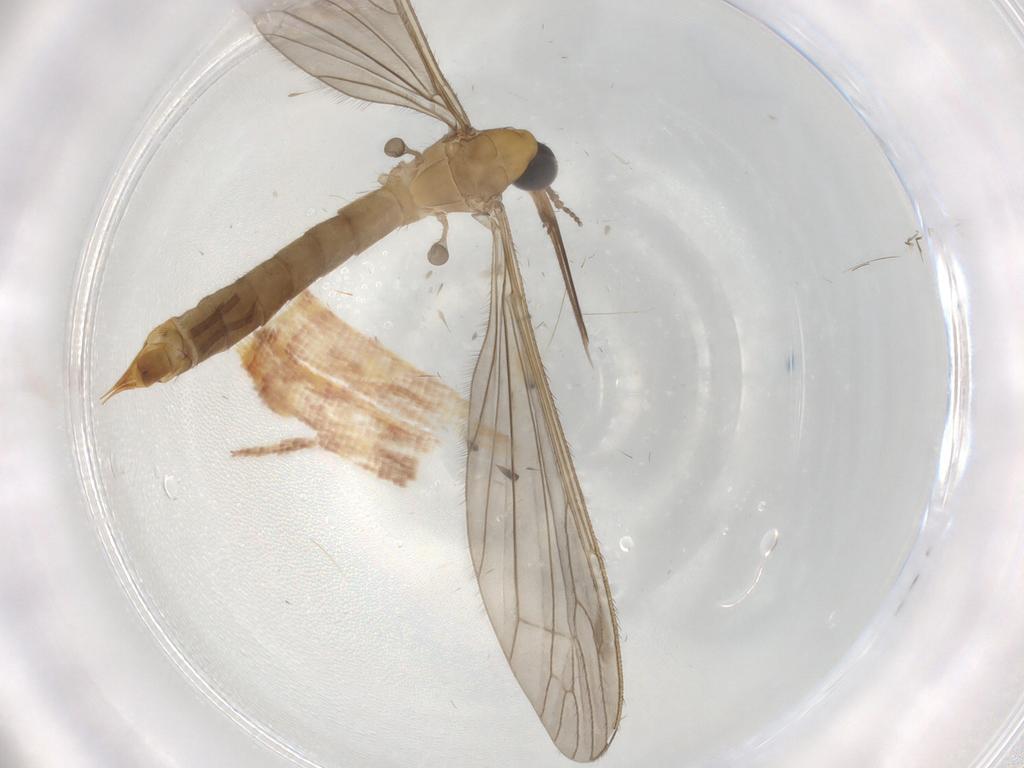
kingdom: Animalia
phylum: Arthropoda
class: Insecta
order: Diptera
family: Phoridae
